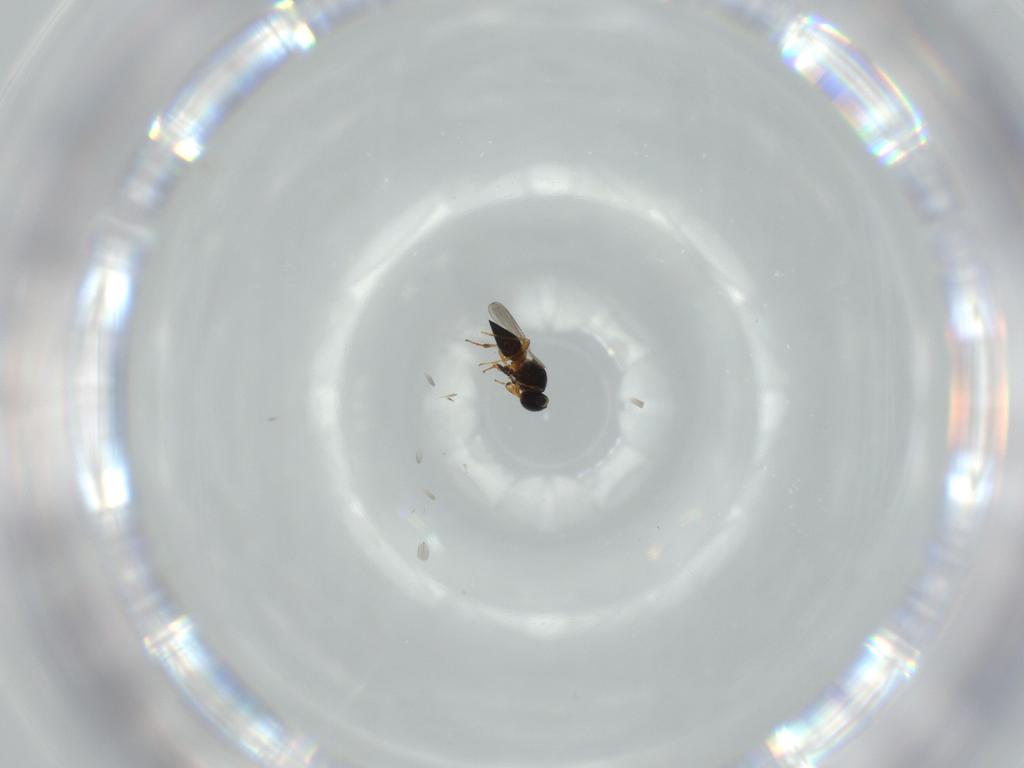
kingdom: Animalia
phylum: Arthropoda
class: Insecta
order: Hymenoptera
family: Platygastridae
